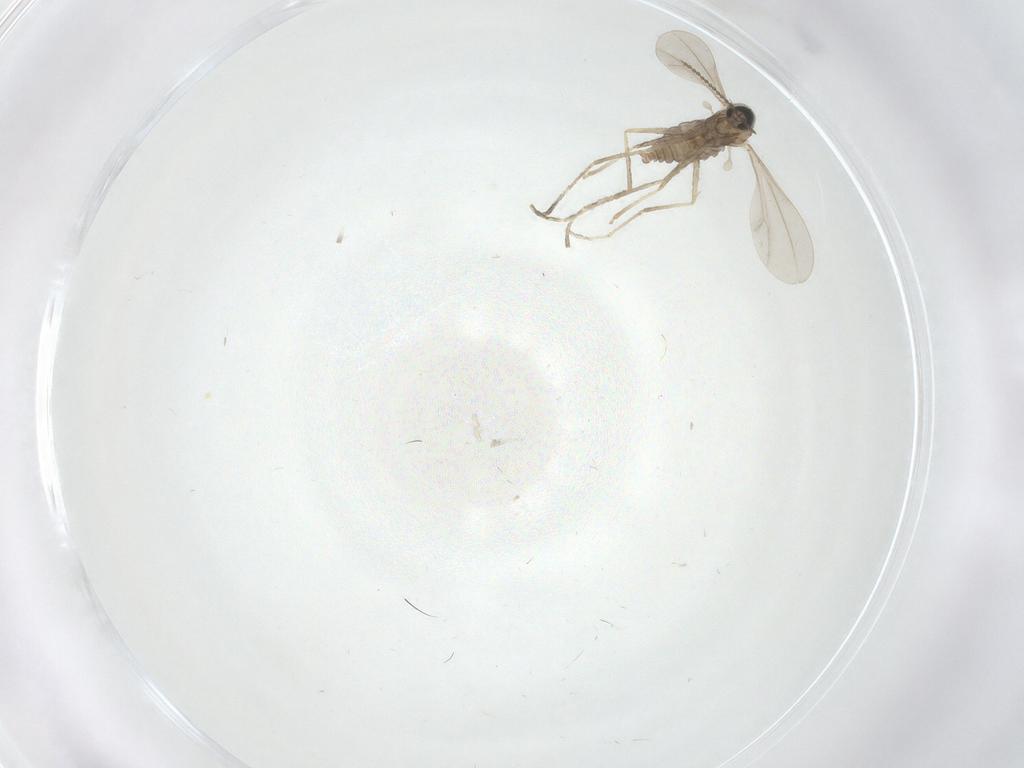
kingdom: Animalia
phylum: Arthropoda
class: Insecta
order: Diptera
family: Cecidomyiidae
